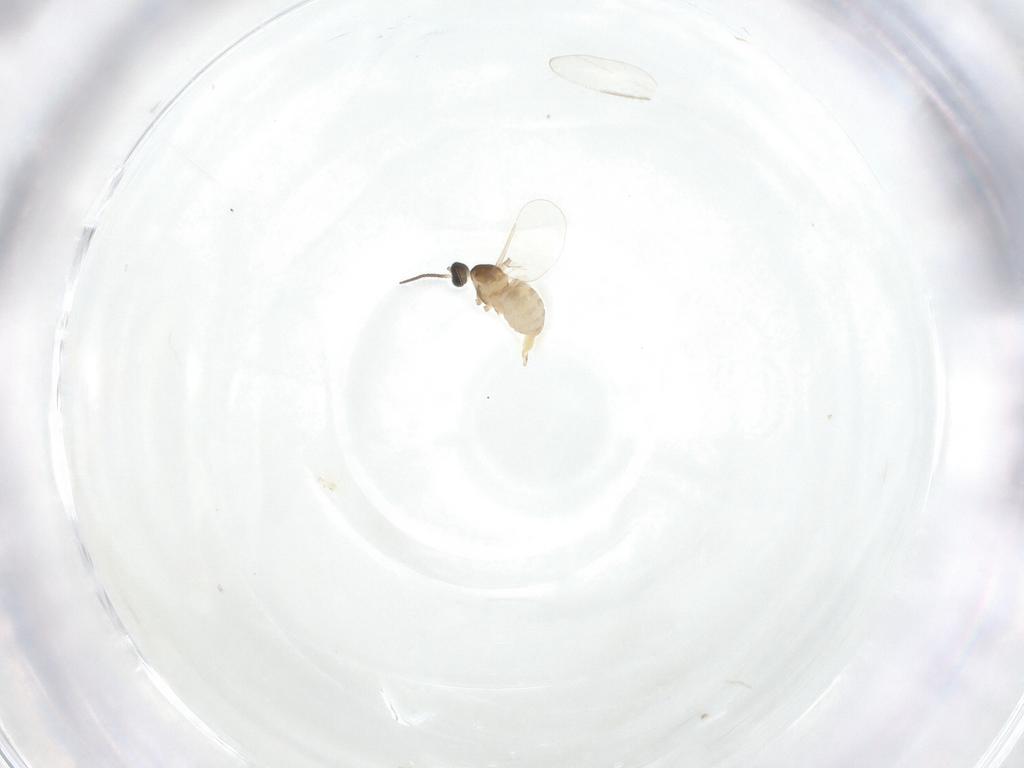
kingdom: Animalia
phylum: Arthropoda
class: Insecta
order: Diptera
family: Cecidomyiidae
